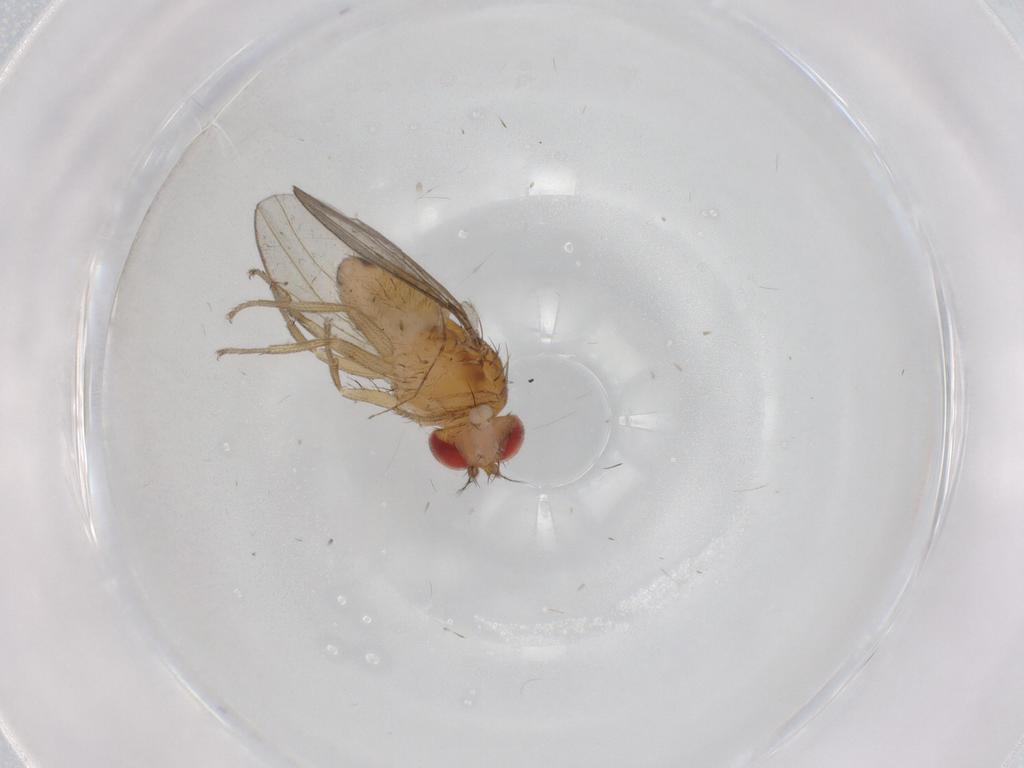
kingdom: Animalia
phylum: Arthropoda
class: Insecta
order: Diptera
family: Drosophilidae
